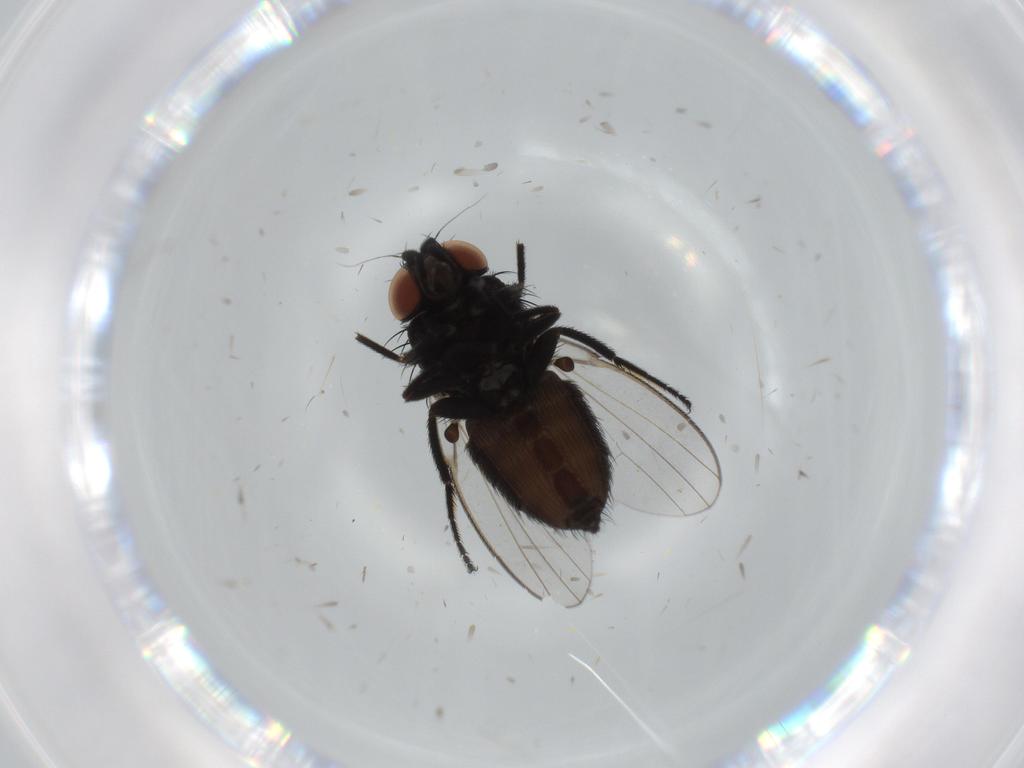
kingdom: Animalia
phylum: Arthropoda
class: Insecta
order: Diptera
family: Milichiidae
